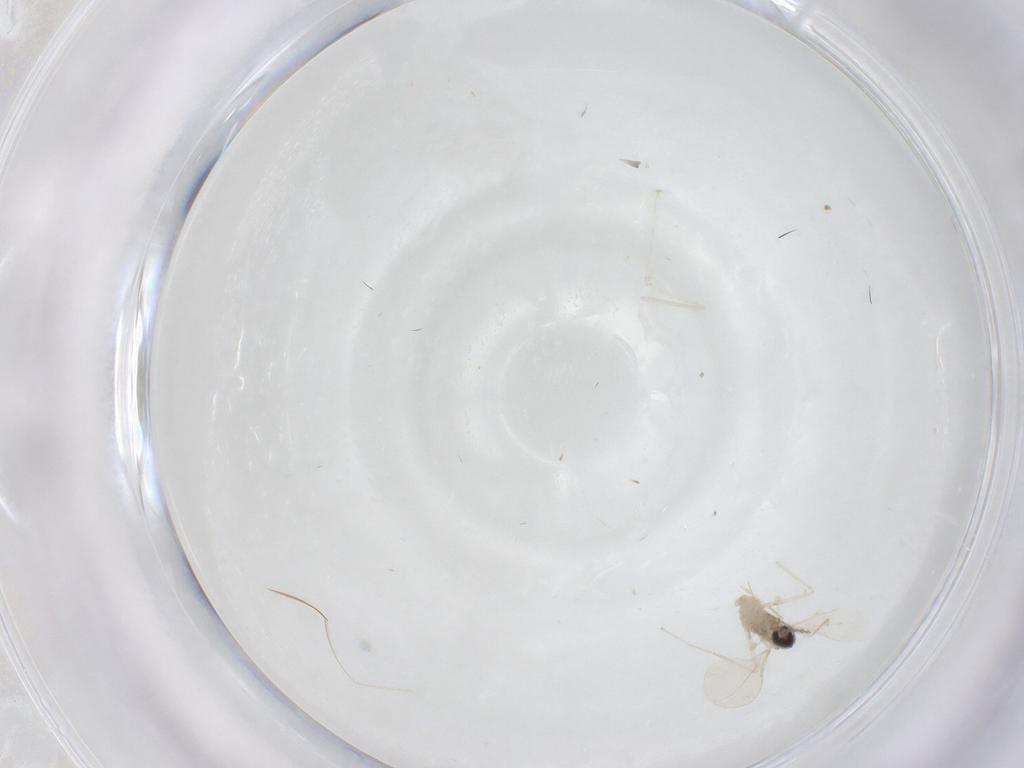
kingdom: Animalia
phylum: Arthropoda
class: Insecta
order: Diptera
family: Cecidomyiidae
